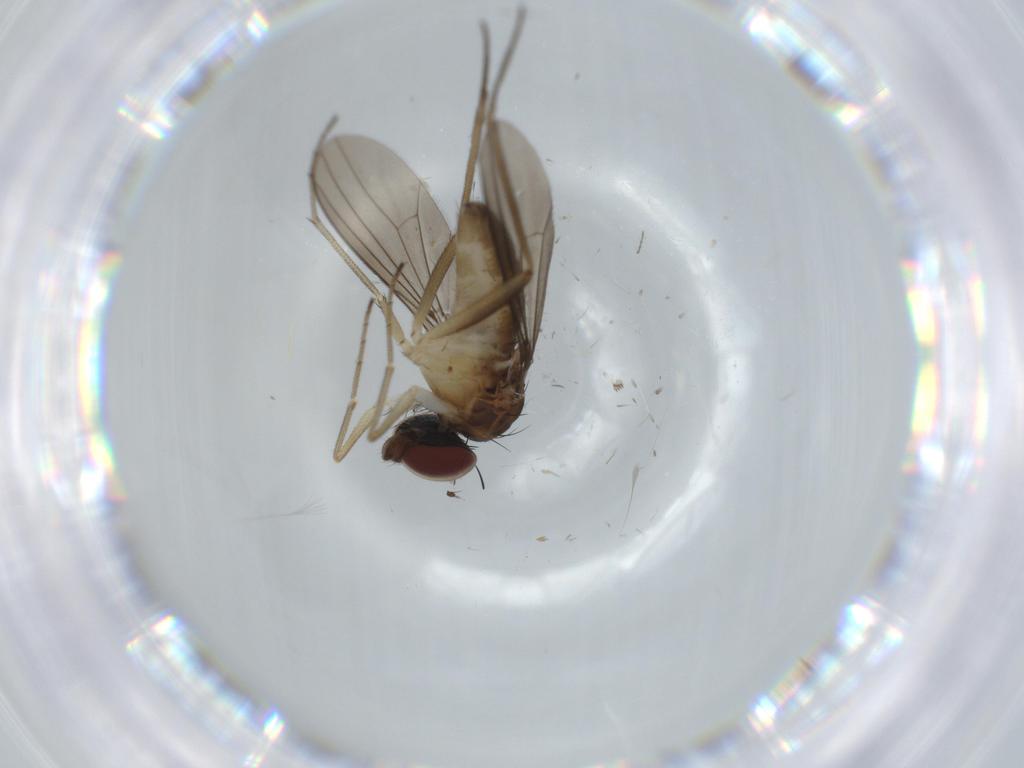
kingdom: Animalia
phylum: Arthropoda
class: Insecta
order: Diptera
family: Dolichopodidae
